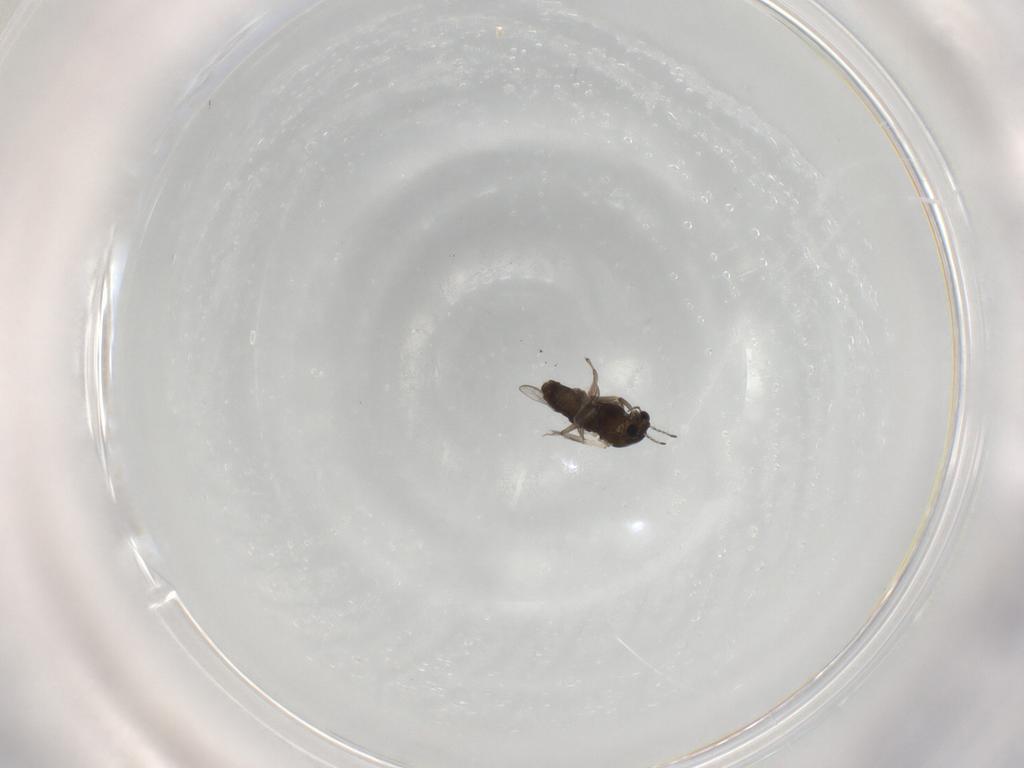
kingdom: Animalia
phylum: Arthropoda
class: Insecta
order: Diptera
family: Chironomidae
